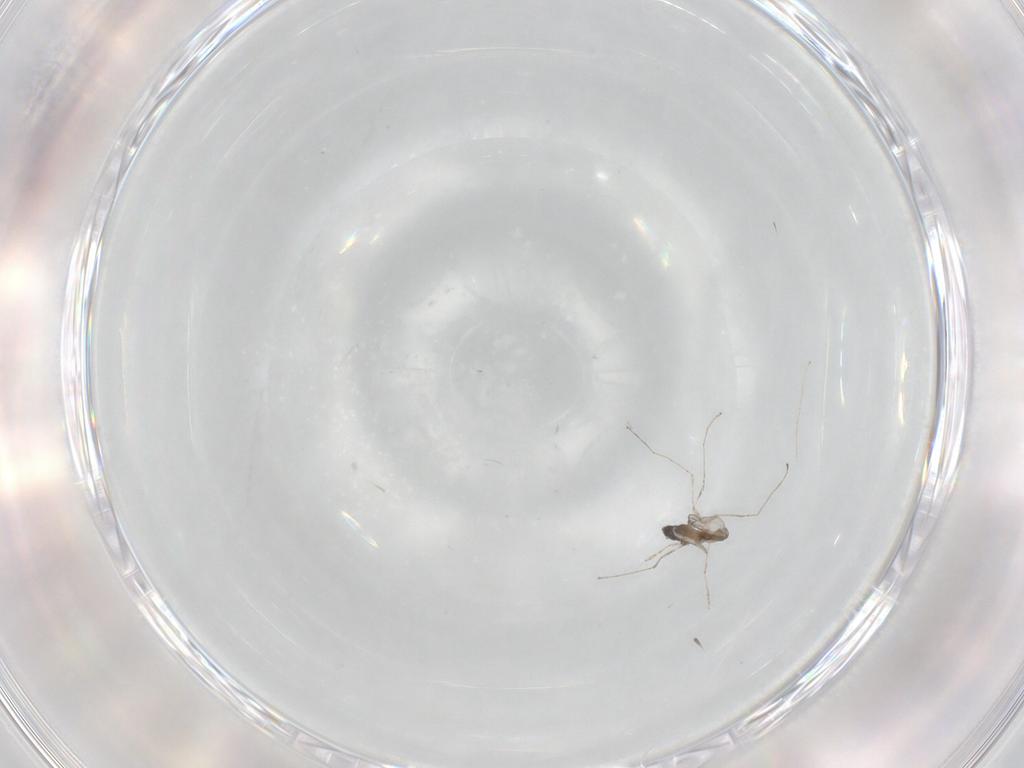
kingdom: Animalia
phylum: Arthropoda
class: Insecta
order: Diptera
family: Cecidomyiidae
